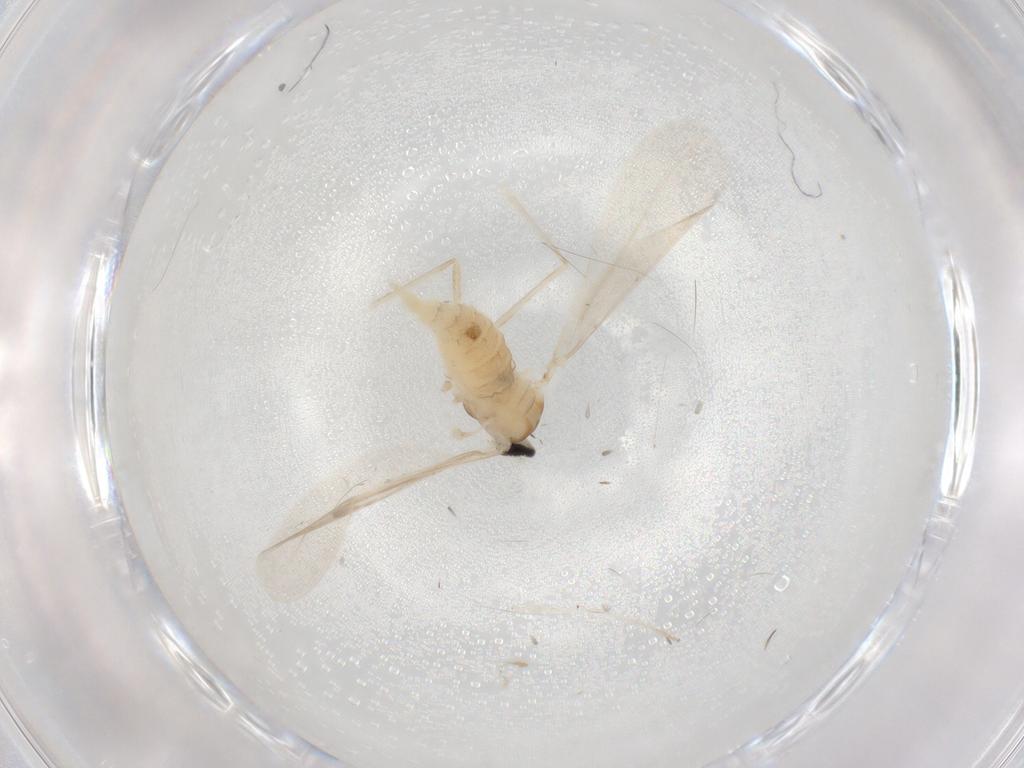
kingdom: Animalia
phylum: Arthropoda
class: Insecta
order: Diptera
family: Cecidomyiidae
